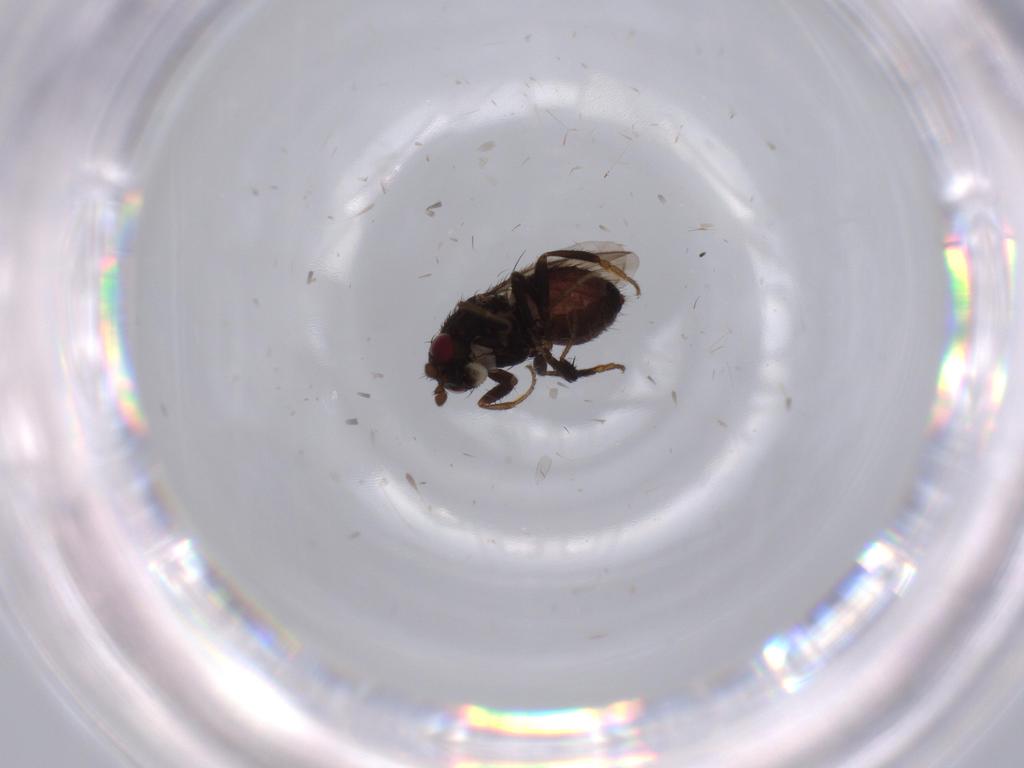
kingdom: Animalia
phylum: Arthropoda
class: Insecta
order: Diptera
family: Sphaeroceridae
